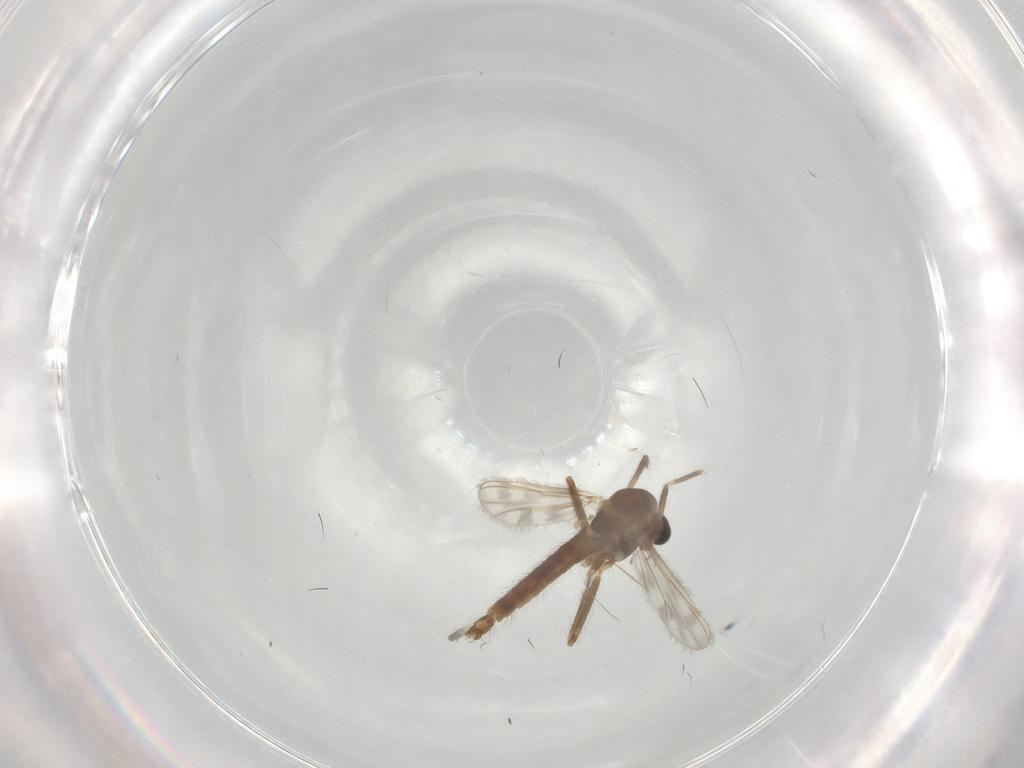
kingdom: Animalia
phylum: Arthropoda
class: Insecta
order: Diptera
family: Chironomidae
